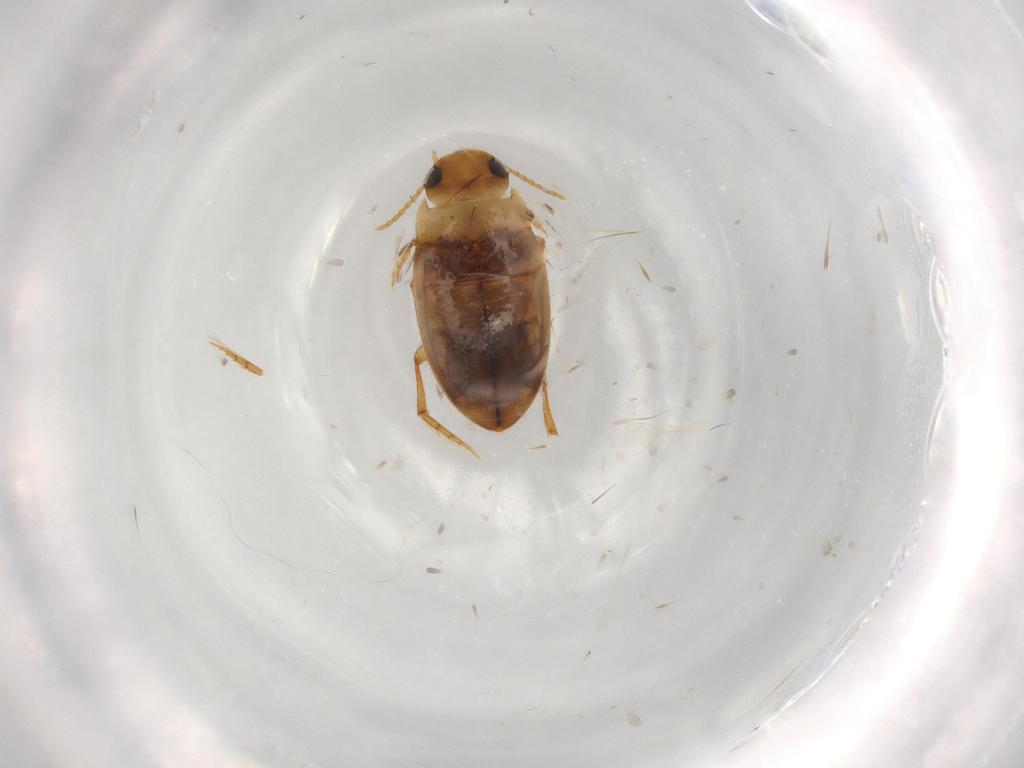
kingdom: Animalia
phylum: Arthropoda
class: Insecta
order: Coleoptera
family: Dytiscidae
